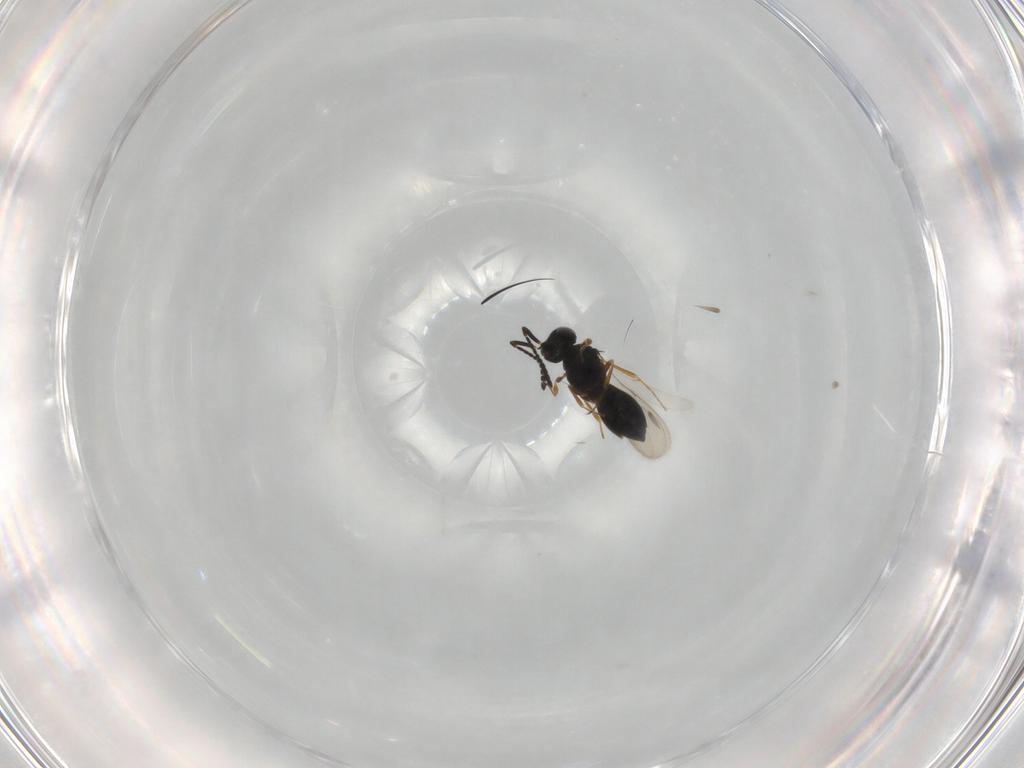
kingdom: Animalia
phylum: Arthropoda
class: Insecta
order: Hymenoptera
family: Scelionidae
